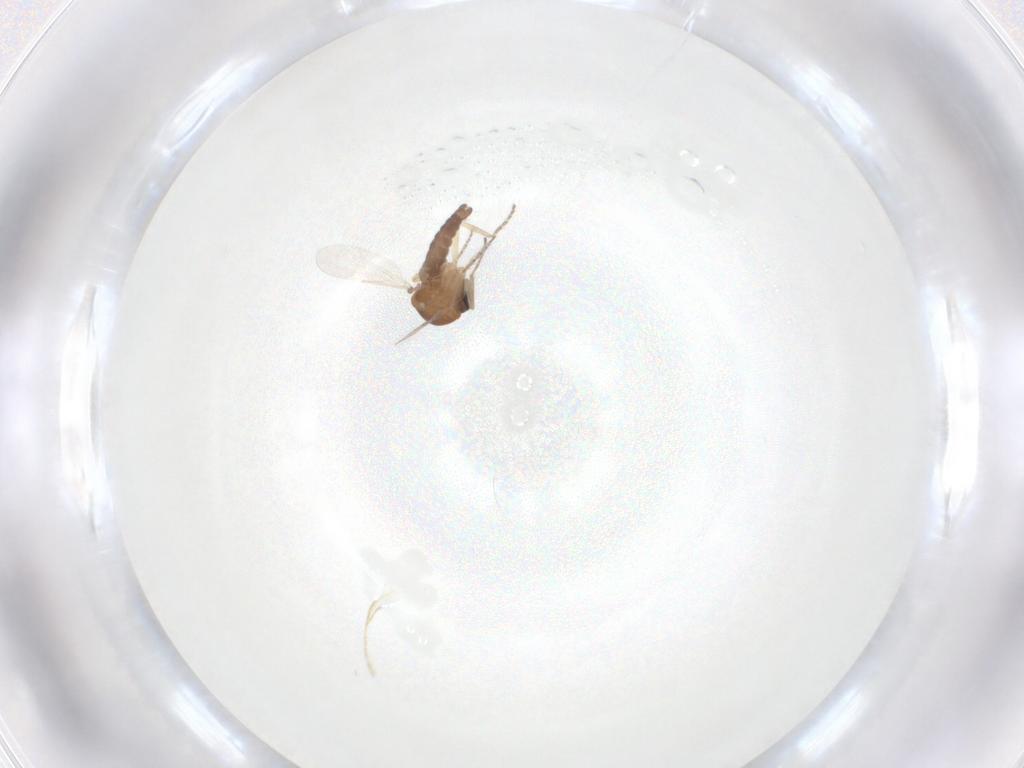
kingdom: Animalia
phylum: Arthropoda
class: Insecta
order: Diptera
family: Ceratopogonidae
